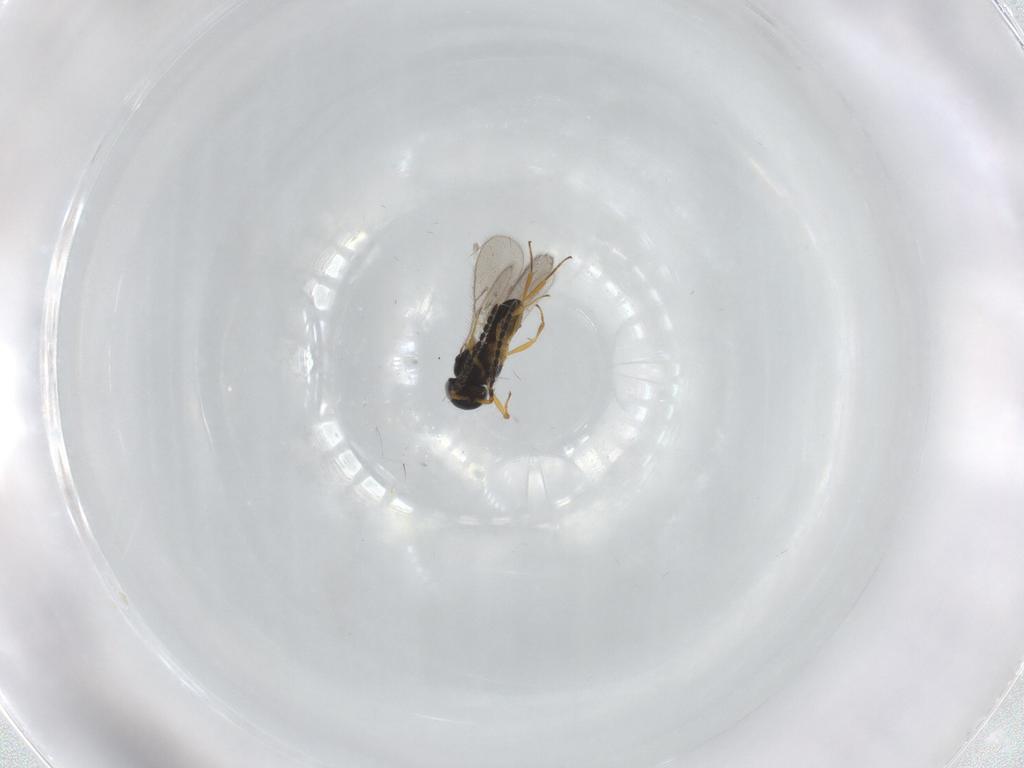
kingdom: Animalia
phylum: Arthropoda
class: Insecta
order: Hymenoptera
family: Scelionidae
